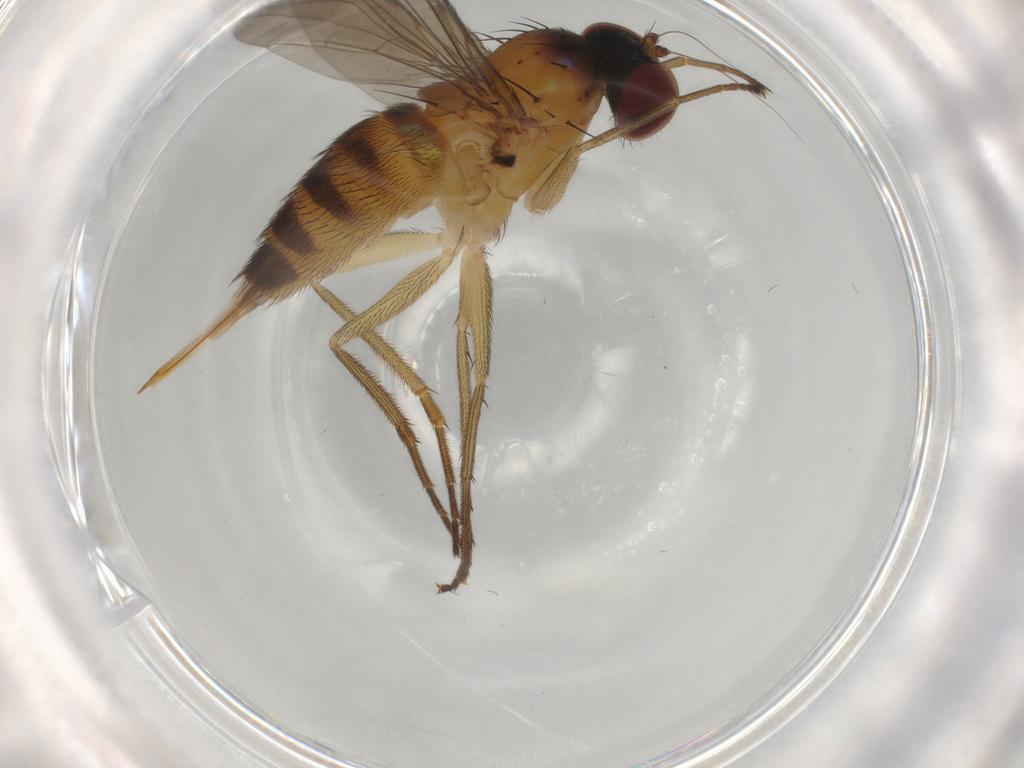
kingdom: Animalia
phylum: Arthropoda
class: Insecta
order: Diptera
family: Dolichopodidae
